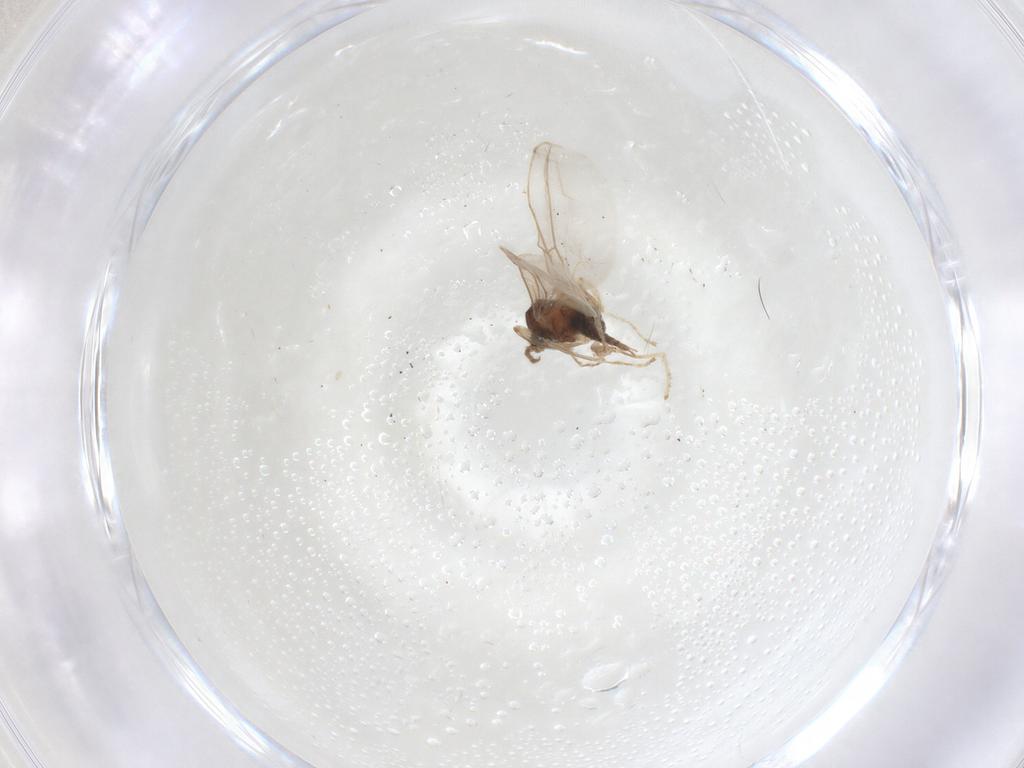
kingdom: Animalia
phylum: Arthropoda
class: Insecta
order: Diptera
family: Cecidomyiidae
